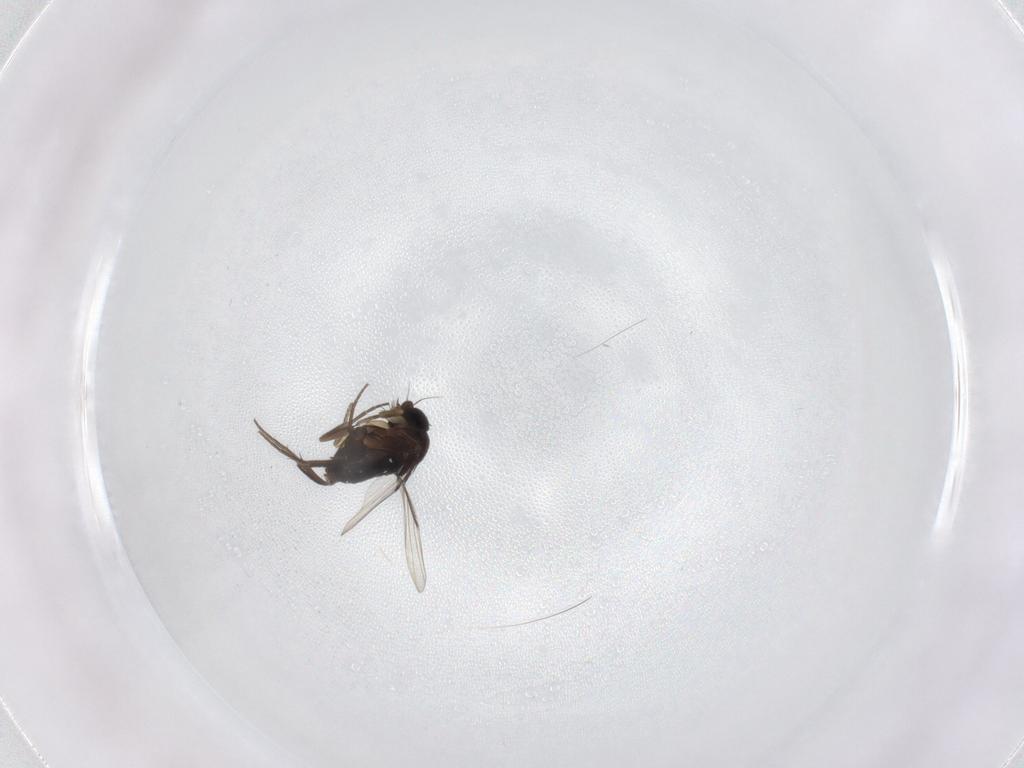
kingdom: Animalia
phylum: Arthropoda
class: Insecta
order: Diptera
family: Phoridae
